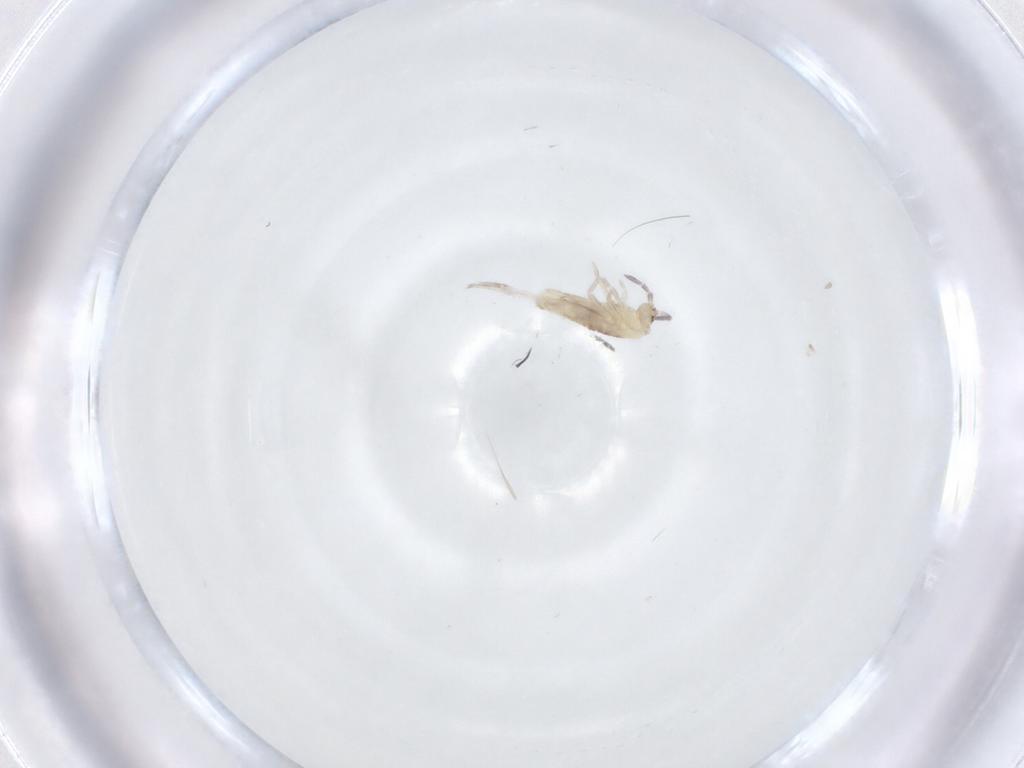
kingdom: Animalia
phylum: Arthropoda
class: Collembola
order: Entomobryomorpha
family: Entomobryidae
